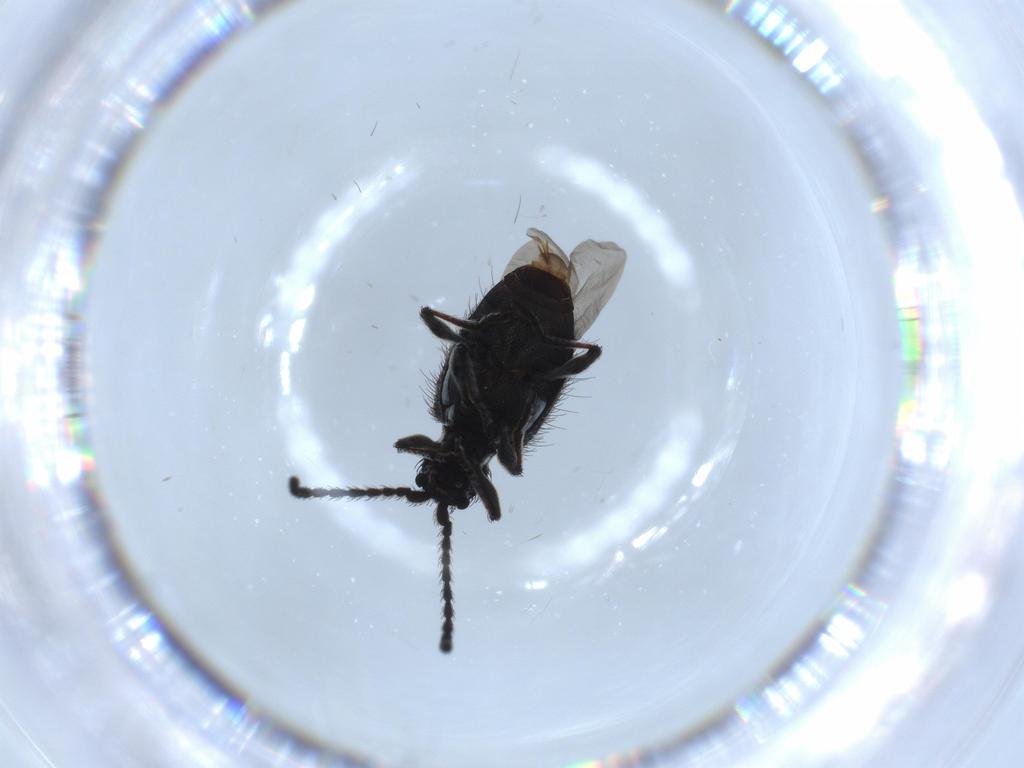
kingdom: Animalia
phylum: Arthropoda
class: Insecta
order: Coleoptera
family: Ptinidae
